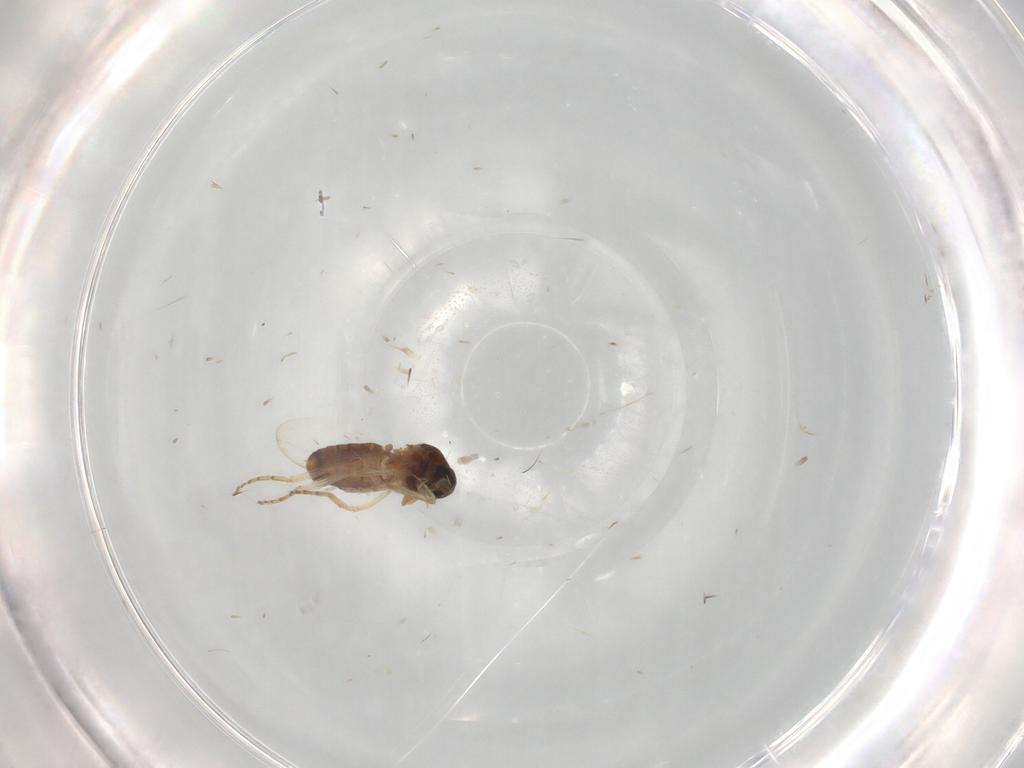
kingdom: Animalia
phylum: Arthropoda
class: Insecta
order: Diptera
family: Ceratopogonidae
